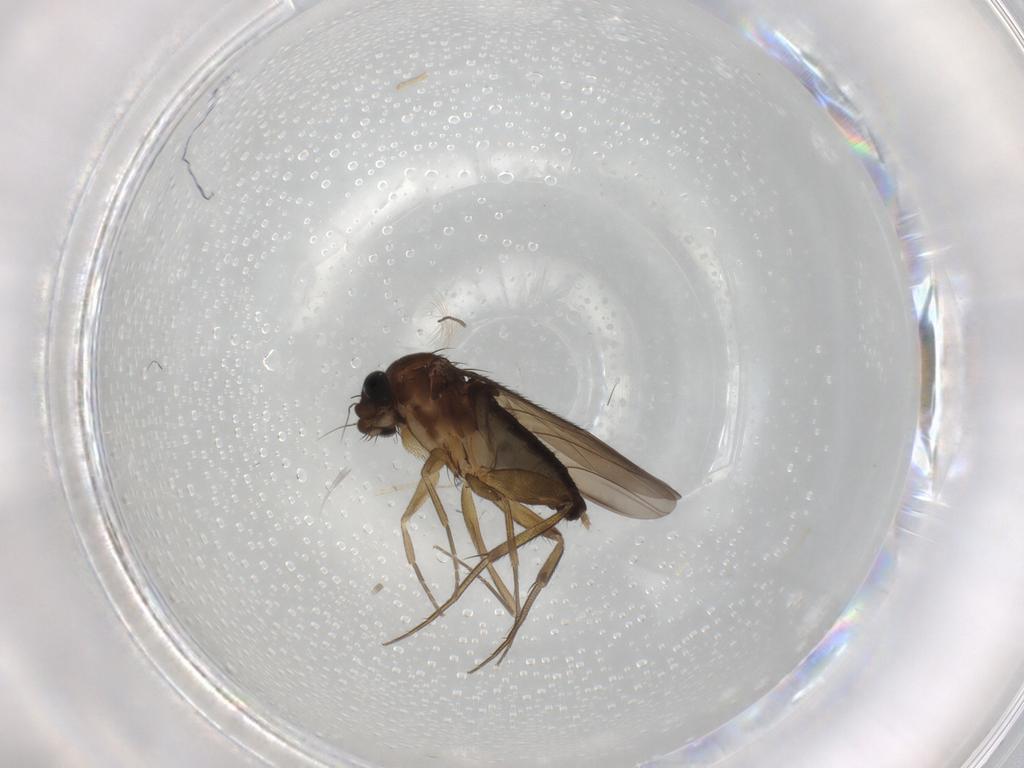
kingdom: Animalia
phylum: Arthropoda
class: Insecta
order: Diptera
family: Phoridae
